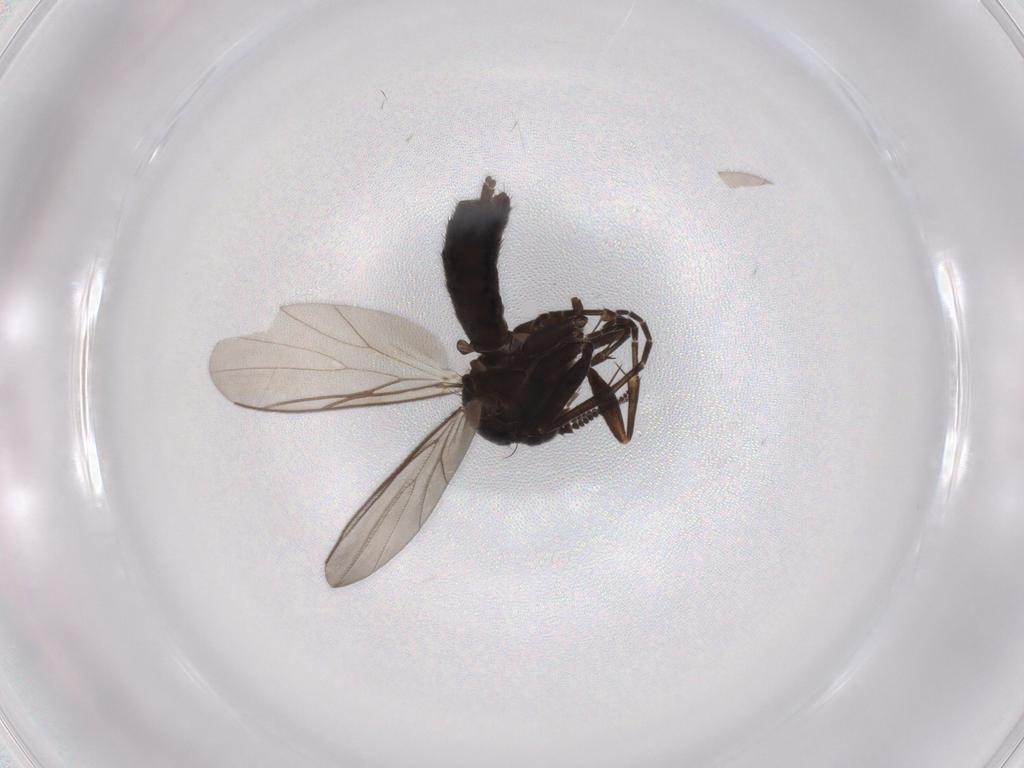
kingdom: Animalia
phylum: Arthropoda
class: Insecta
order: Diptera
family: Mycetophilidae
